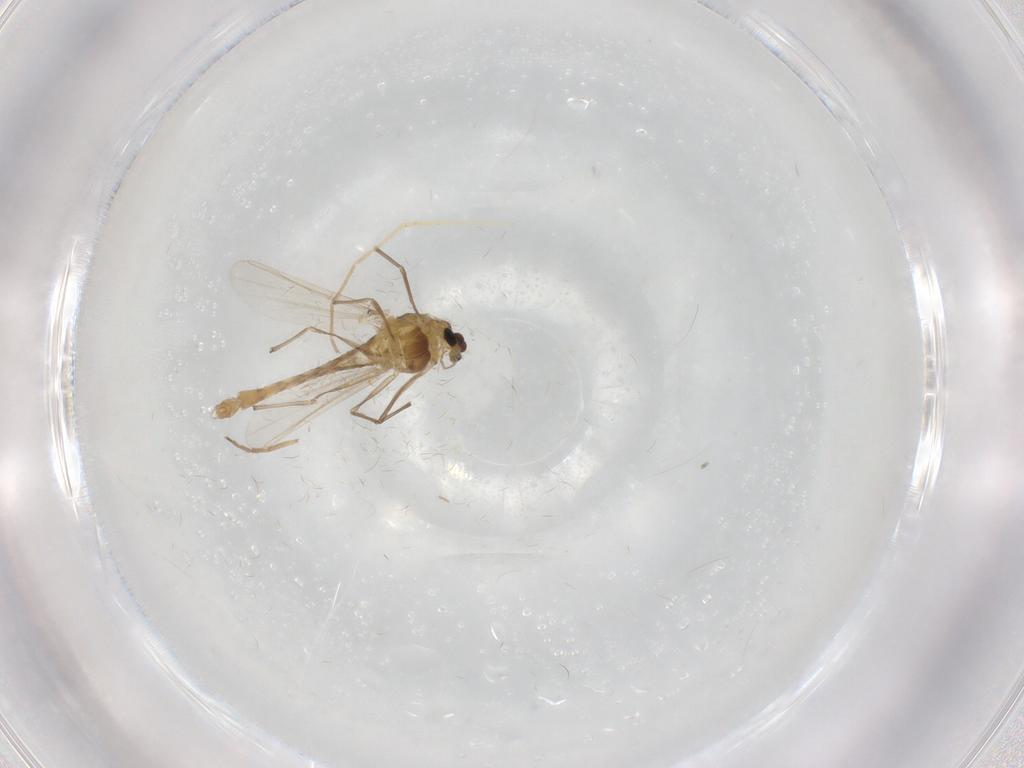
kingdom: Animalia
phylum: Arthropoda
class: Insecta
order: Diptera
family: Chironomidae
